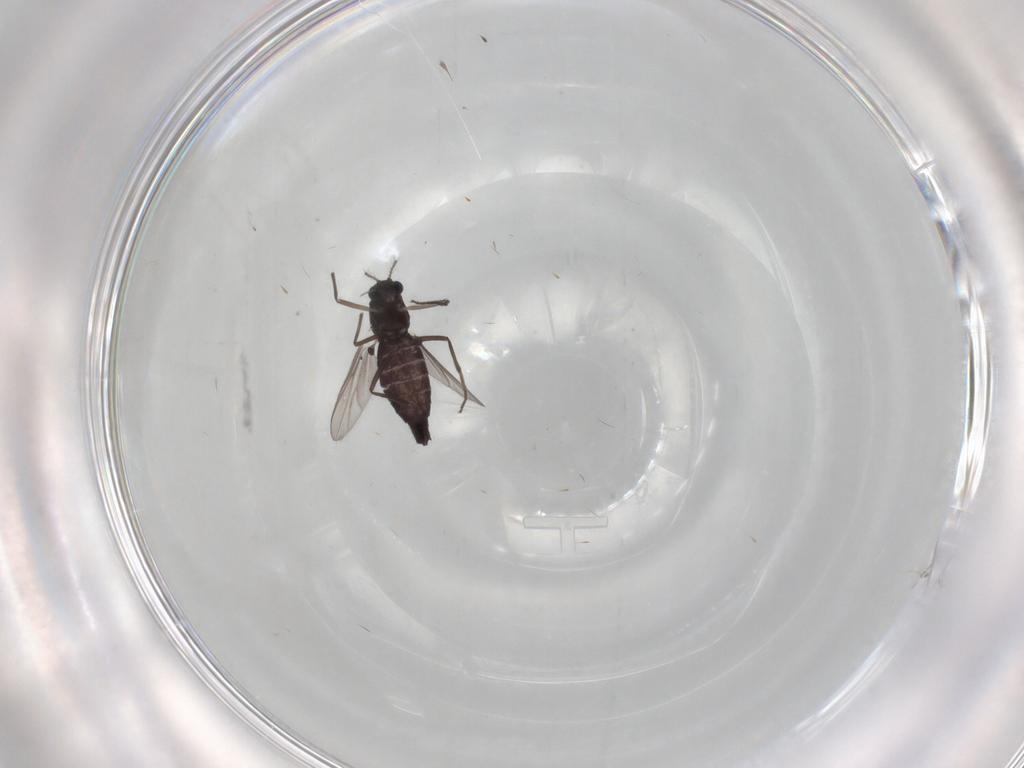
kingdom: Animalia
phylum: Arthropoda
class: Insecta
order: Diptera
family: Chironomidae
